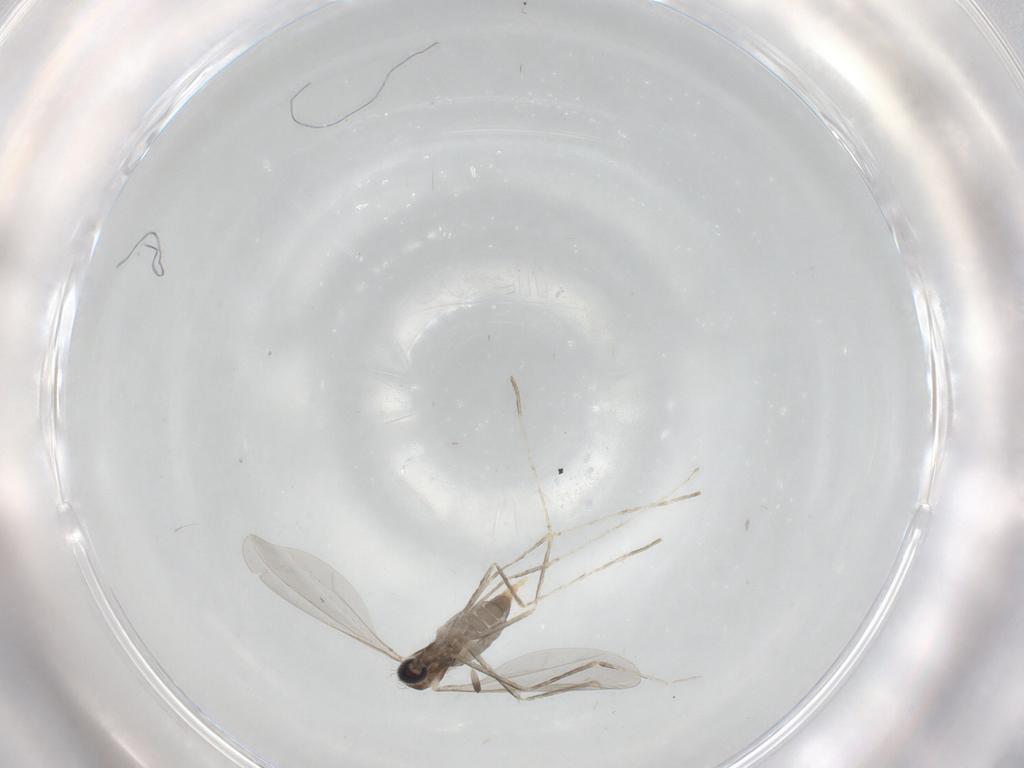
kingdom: Animalia
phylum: Arthropoda
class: Insecta
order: Diptera
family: Cecidomyiidae
